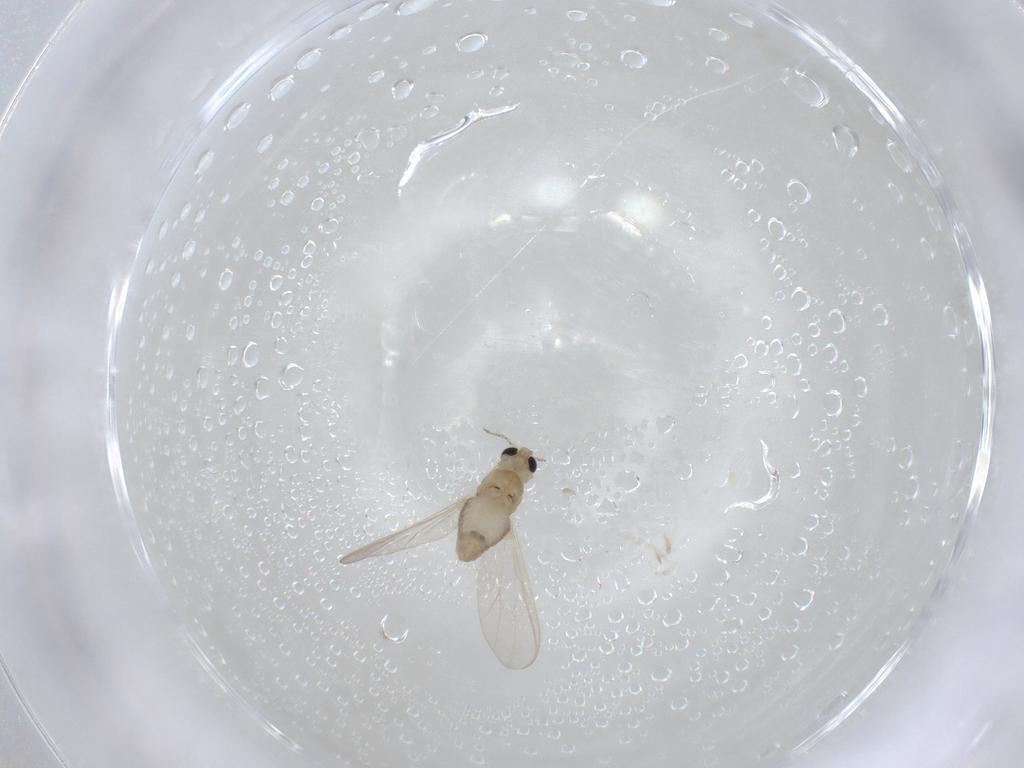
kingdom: Animalia
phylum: Arthropoda
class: Insecta
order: Diptera
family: Chironomidae
